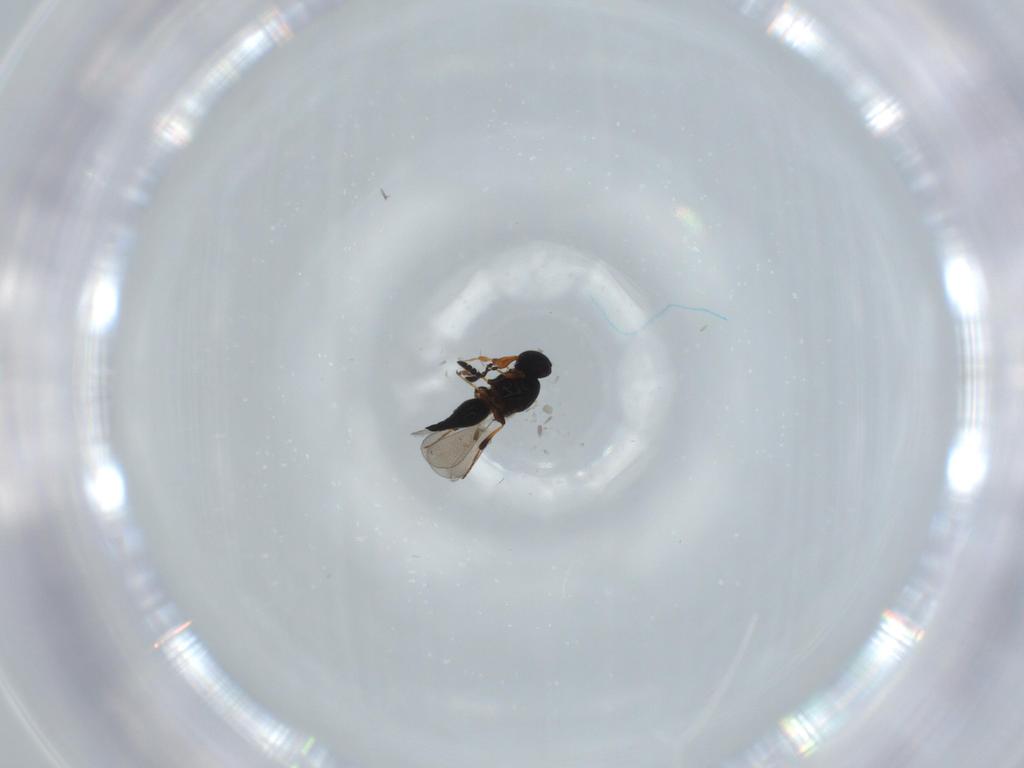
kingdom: Animalia
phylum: Arthropoda
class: Insecta
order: Hymenoptera
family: Platygastridae
